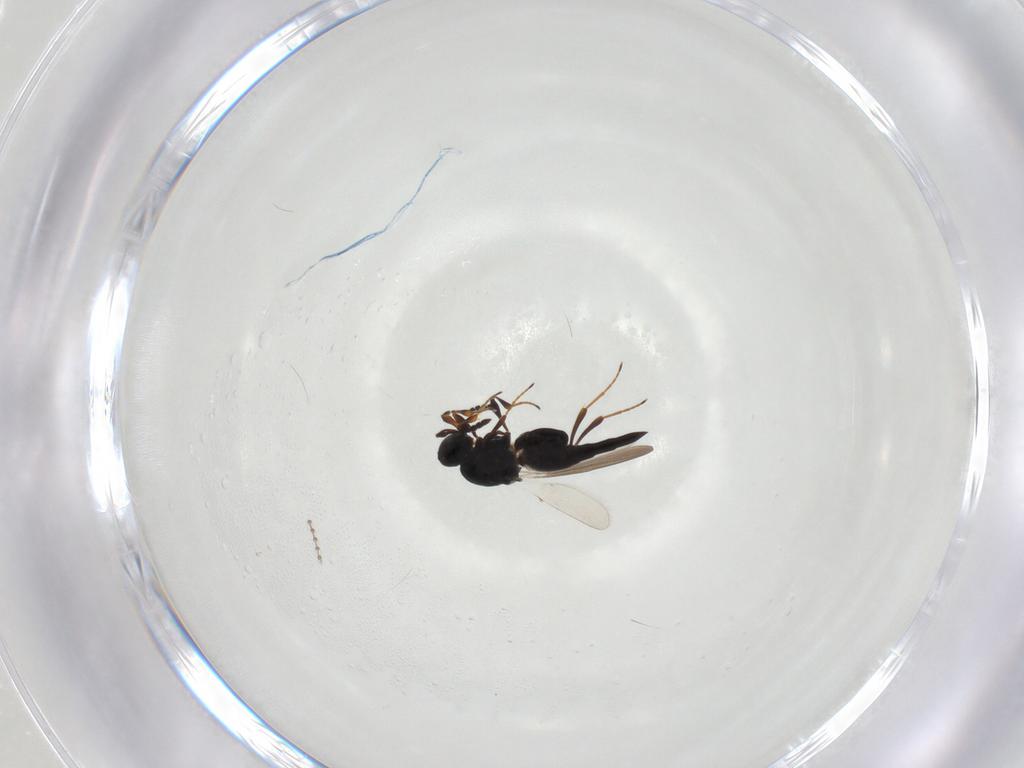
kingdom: Animalia
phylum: Arthropoda
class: Insecta
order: Hymenoptera
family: Platygastridae
